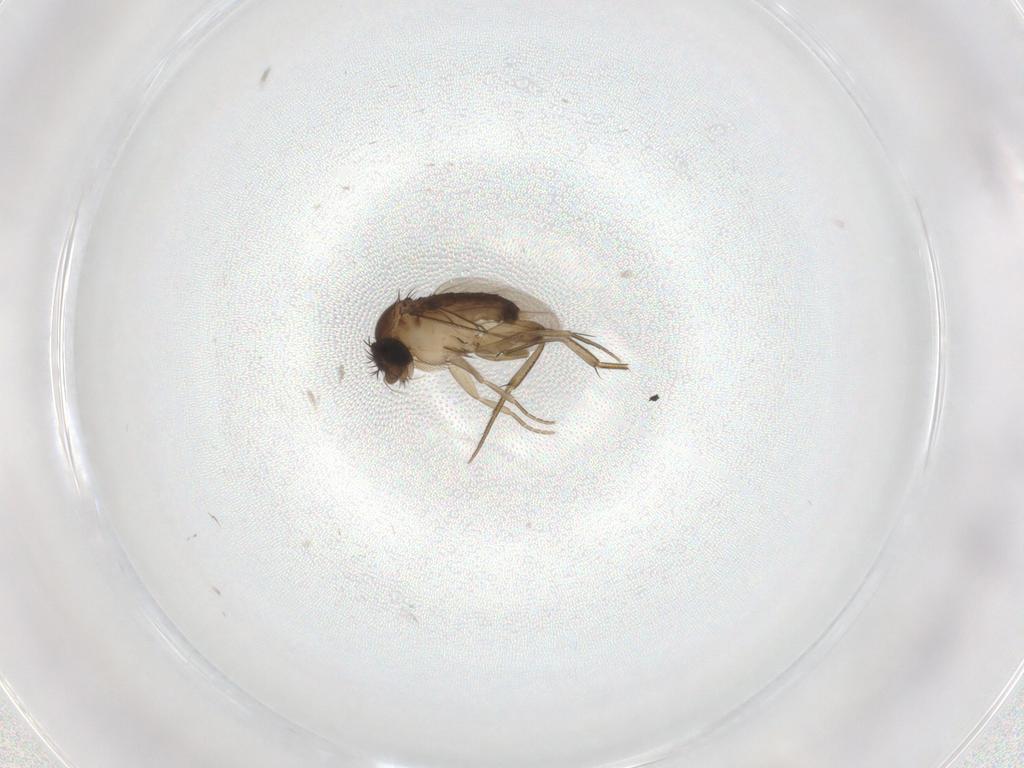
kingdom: Animalia
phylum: Arthropoda
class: Insecta
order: Diptera
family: Phoridae
